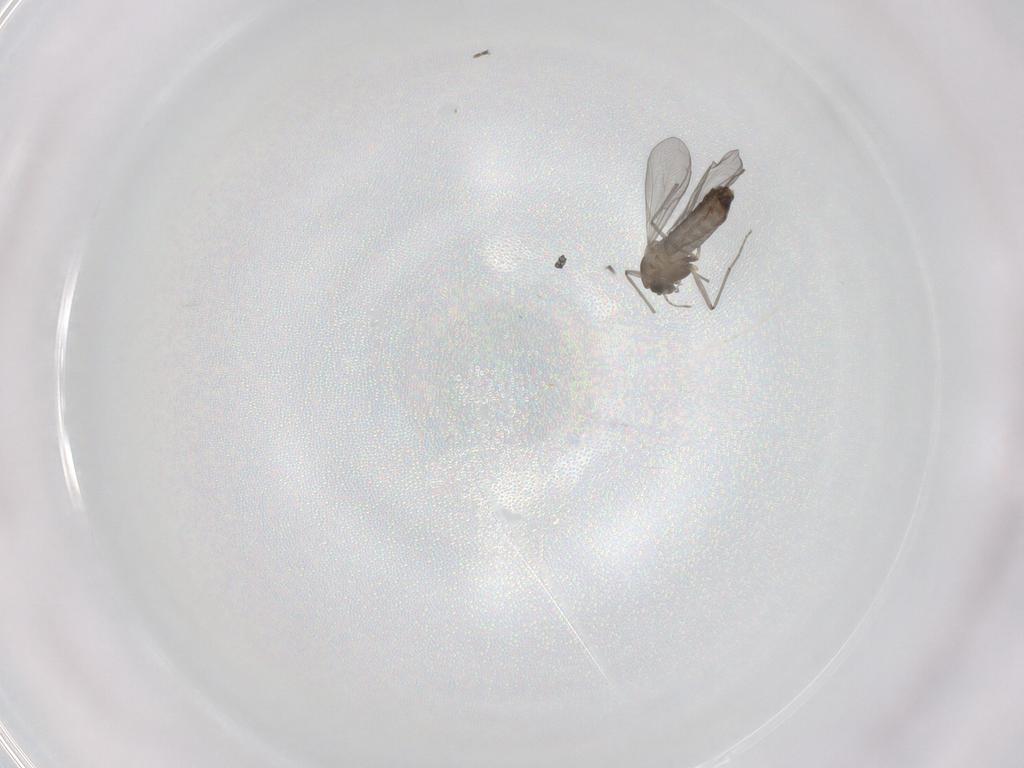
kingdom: Animalia
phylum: Arthropoda
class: Insecta
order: Diptera
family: Chironomidae
